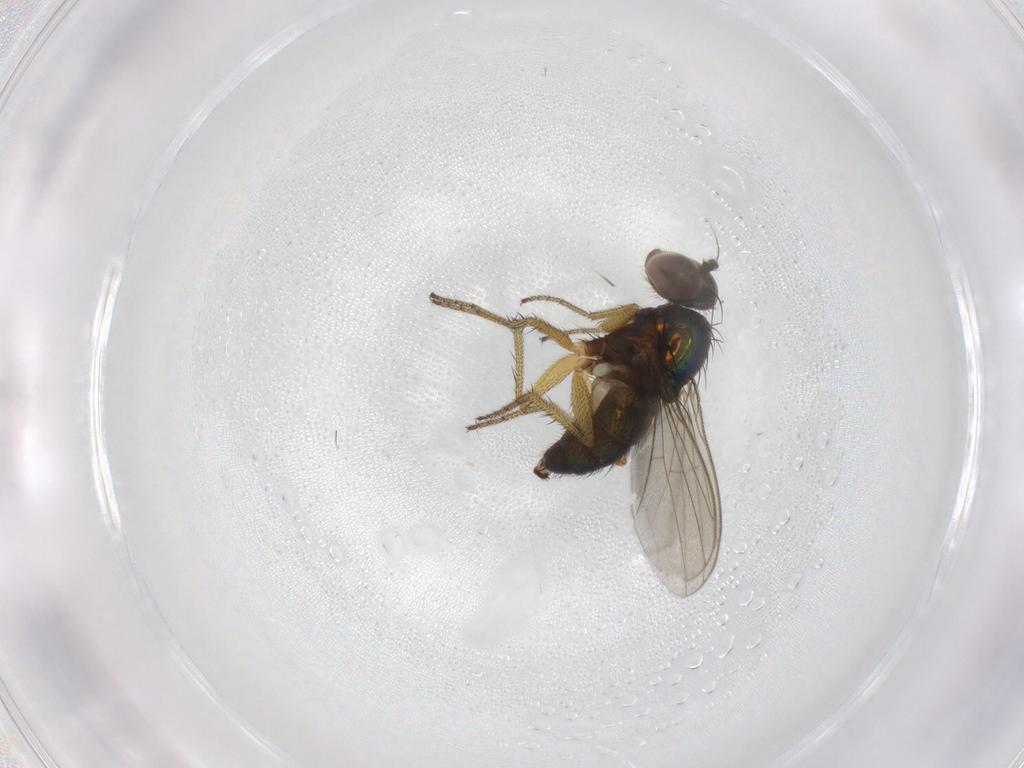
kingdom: Animalia
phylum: Arthropoda
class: Insecta
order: Diptera
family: Dolichopodidae
